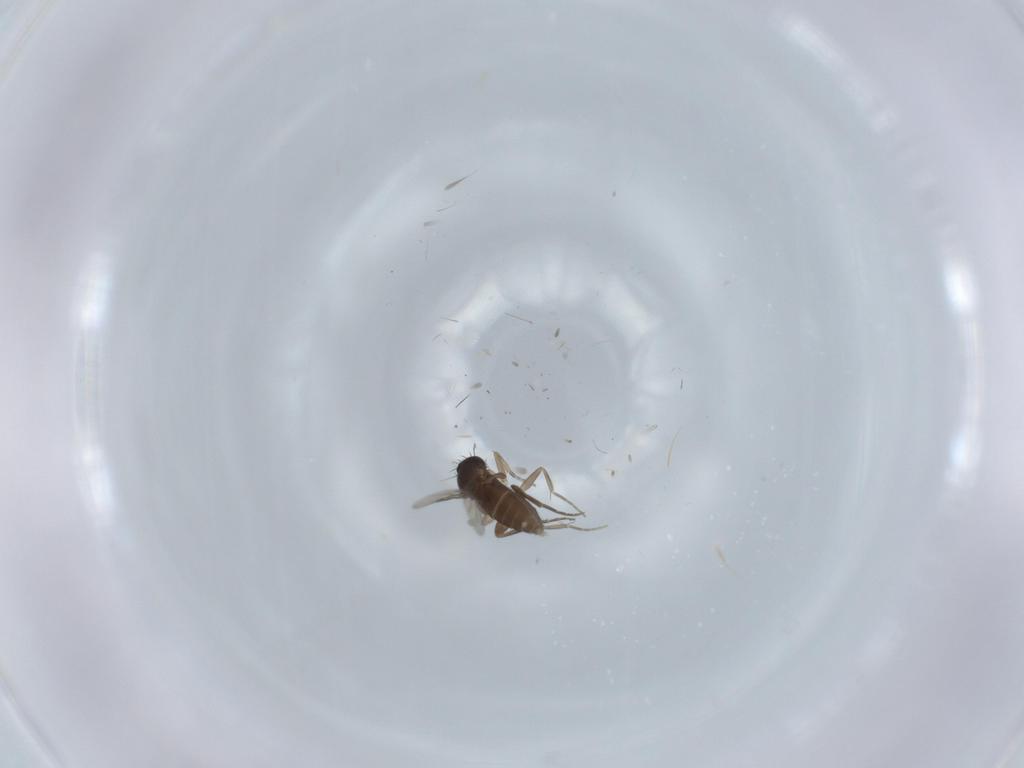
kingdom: Animalia
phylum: Arthropoda
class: Insecta
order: Diptera
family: Phoridae
